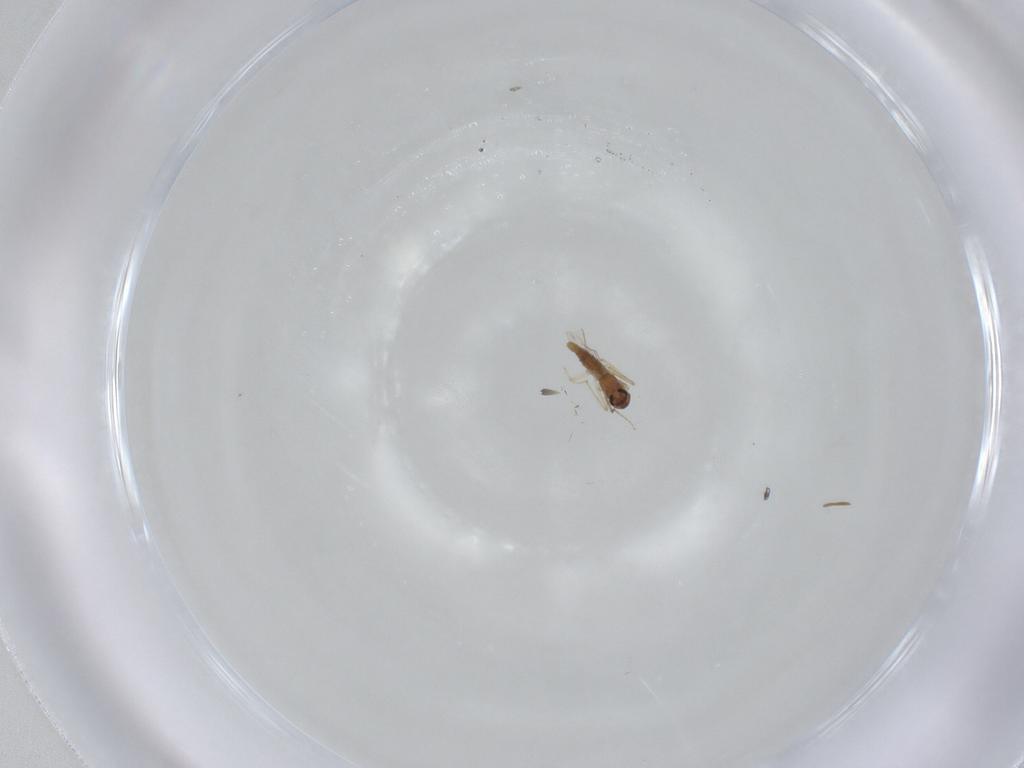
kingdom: Animalia
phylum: Arthropoda
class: Insecta
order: Diptera
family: Chironomidae
